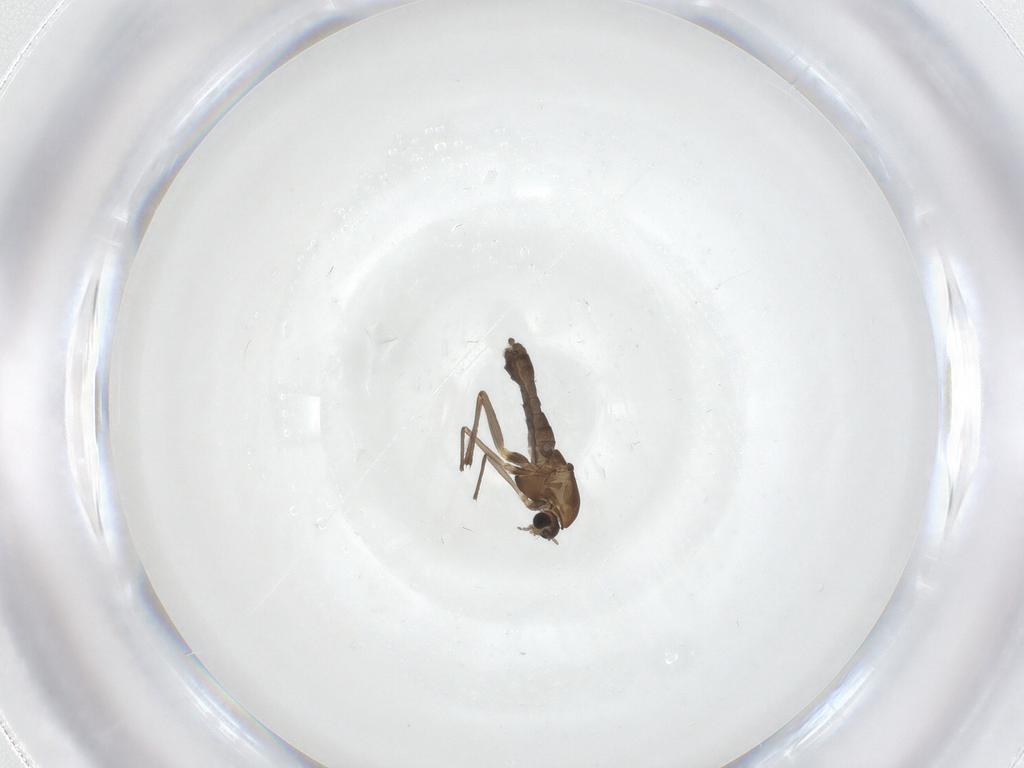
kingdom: Animalia
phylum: Arthropoda
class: Insecta
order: Diptera
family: Chironomidae
